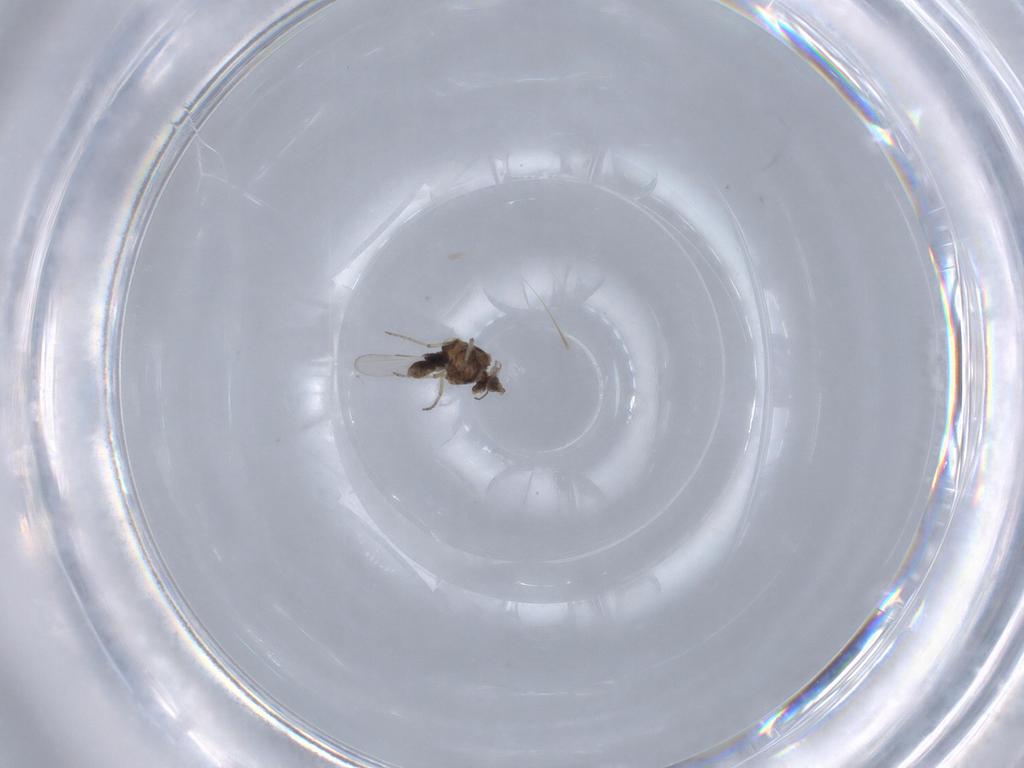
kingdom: Animalia
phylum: Arthropoda
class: Insecta
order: Diptera
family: Ceratopogonidae
